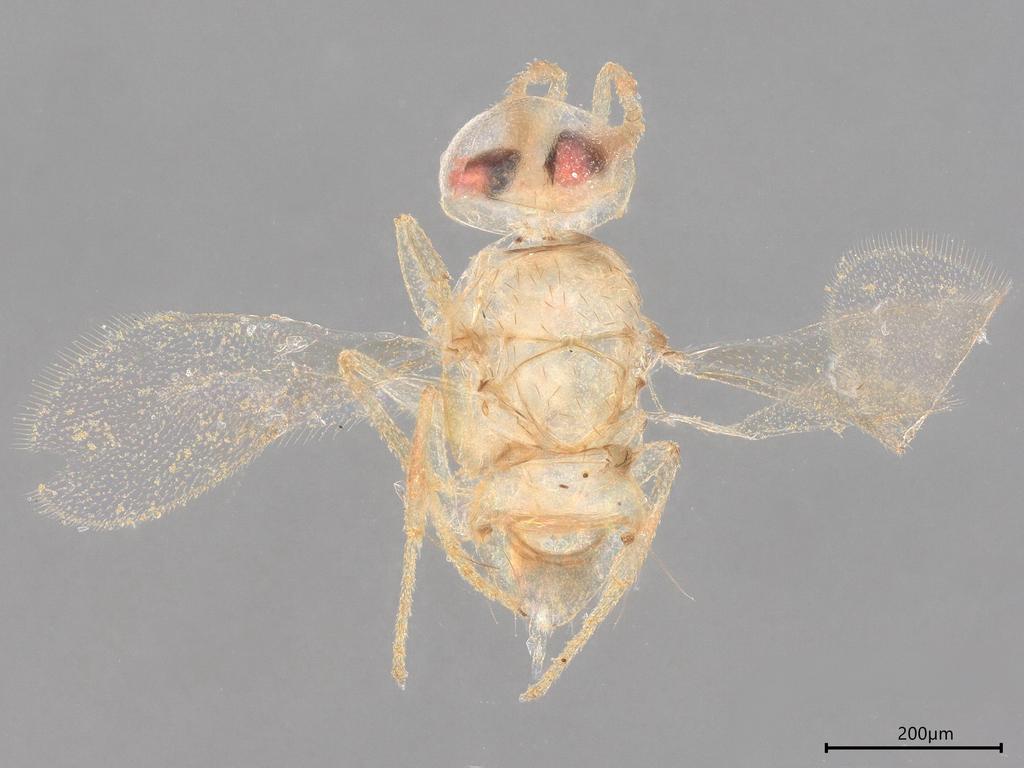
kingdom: Animalia
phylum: Arthropoda
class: Insecta
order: Hymenoptera
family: Encyrtidae
